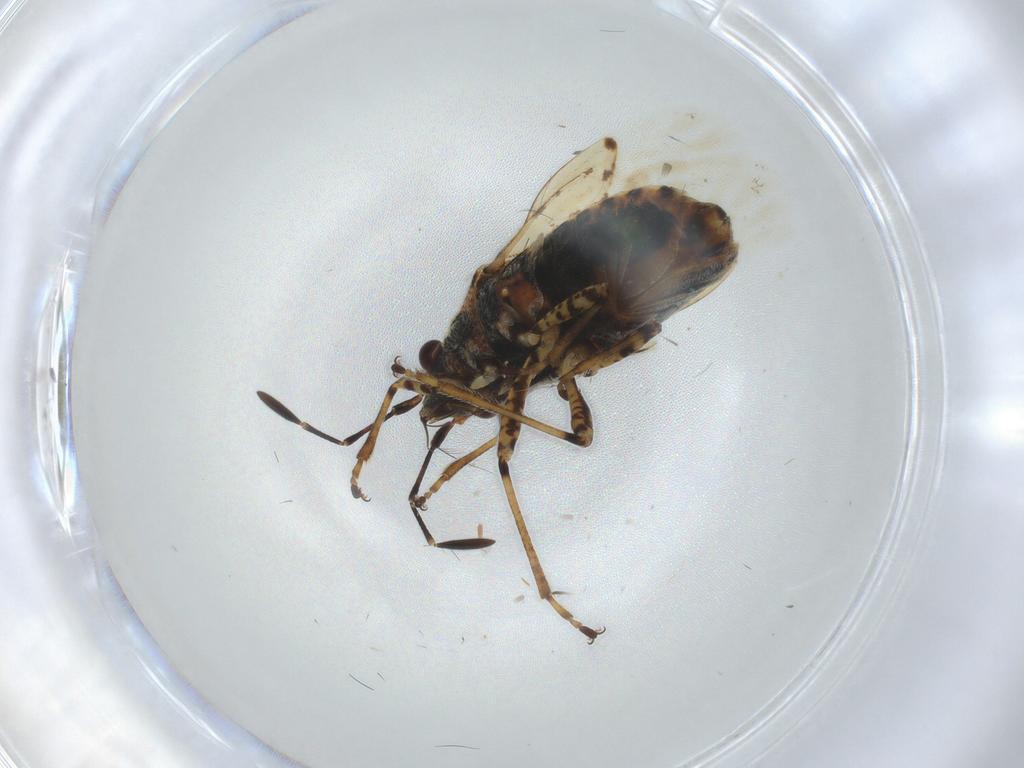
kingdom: Animalia
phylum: Arthropoda
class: Insecta
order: Hemiptera
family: Lygaeidae
